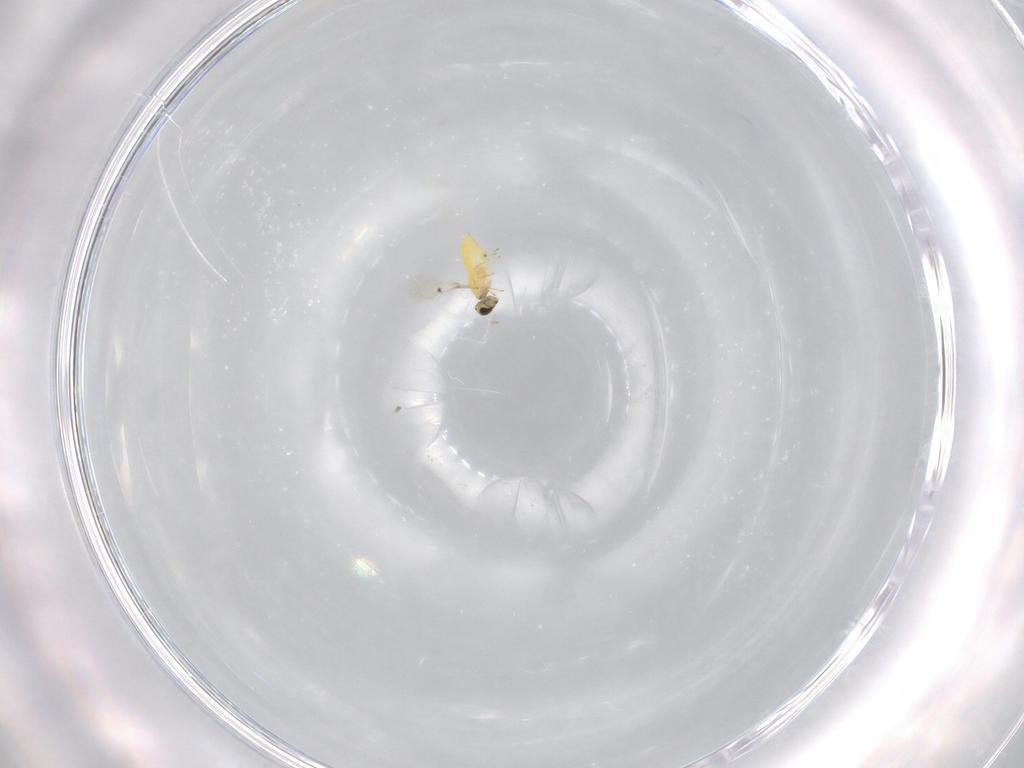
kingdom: Animalia
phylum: Arthropoda
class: Insecta
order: Hymenoptera
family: Trichogrammatidae
